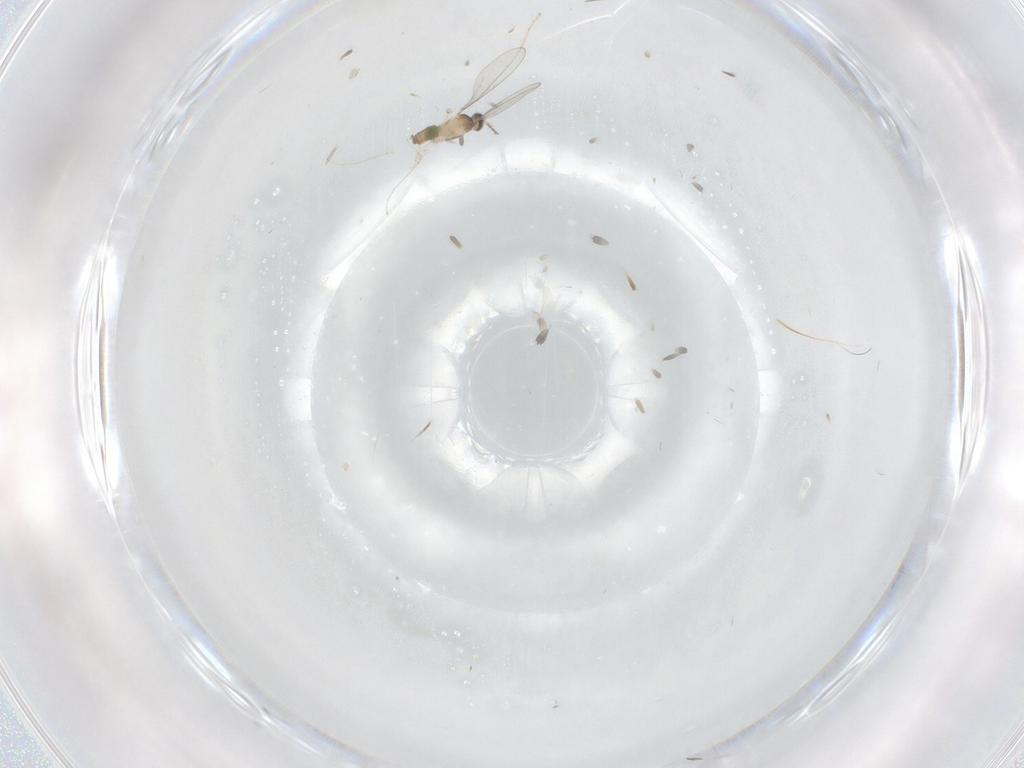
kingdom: Animalia
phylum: Arthropoda
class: Insecta
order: Diptera
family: Cecidomyiidae
